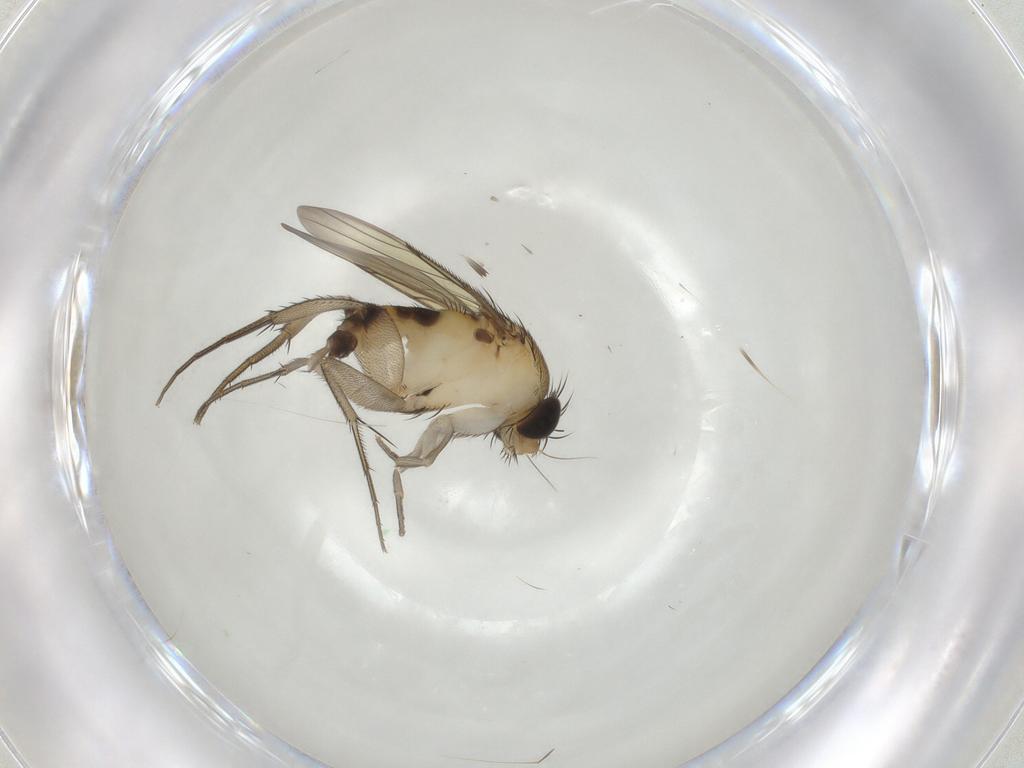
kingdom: Animalia
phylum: Arthropoda
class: Insecta
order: Diptera
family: Phoridae
